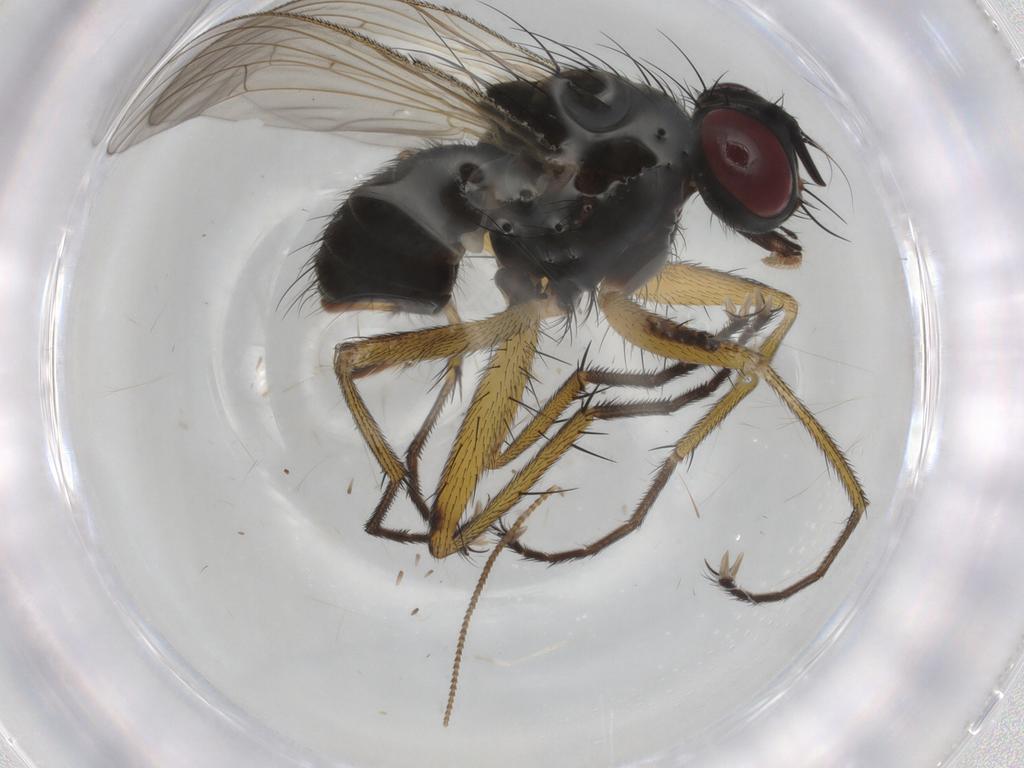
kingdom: Animalia
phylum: Arthropoda
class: Insecta
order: Diptera
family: Muscidae
